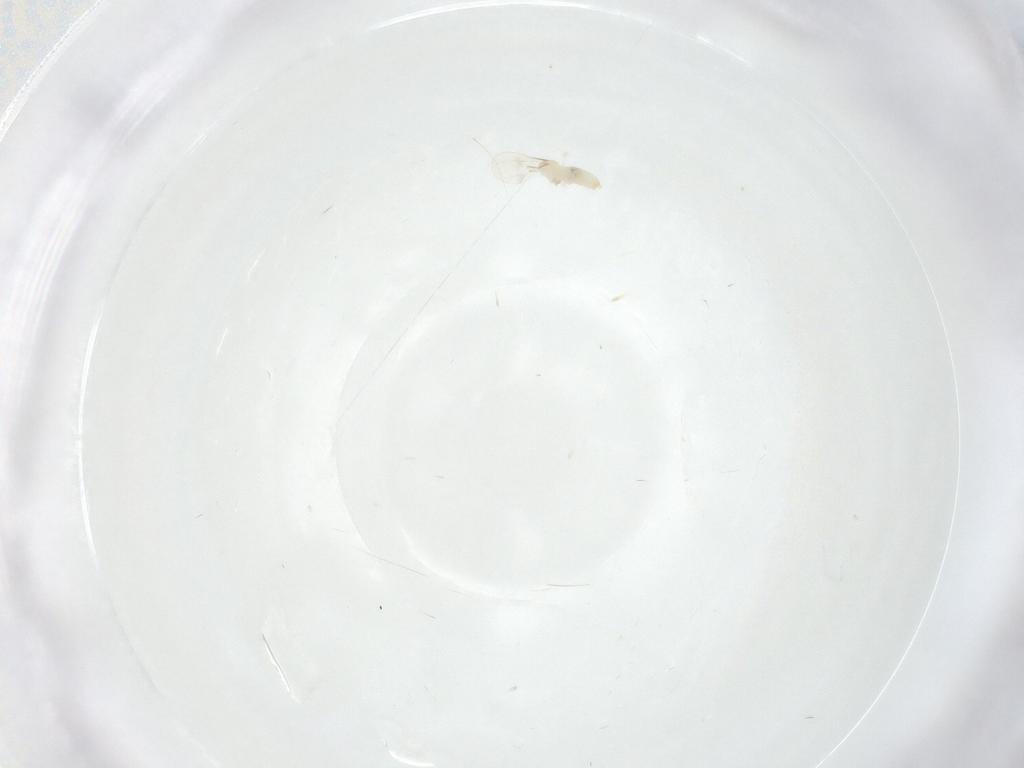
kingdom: Animalia
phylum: Arthropoda
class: Insecta
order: Diptera
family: Cecidomyiidae
